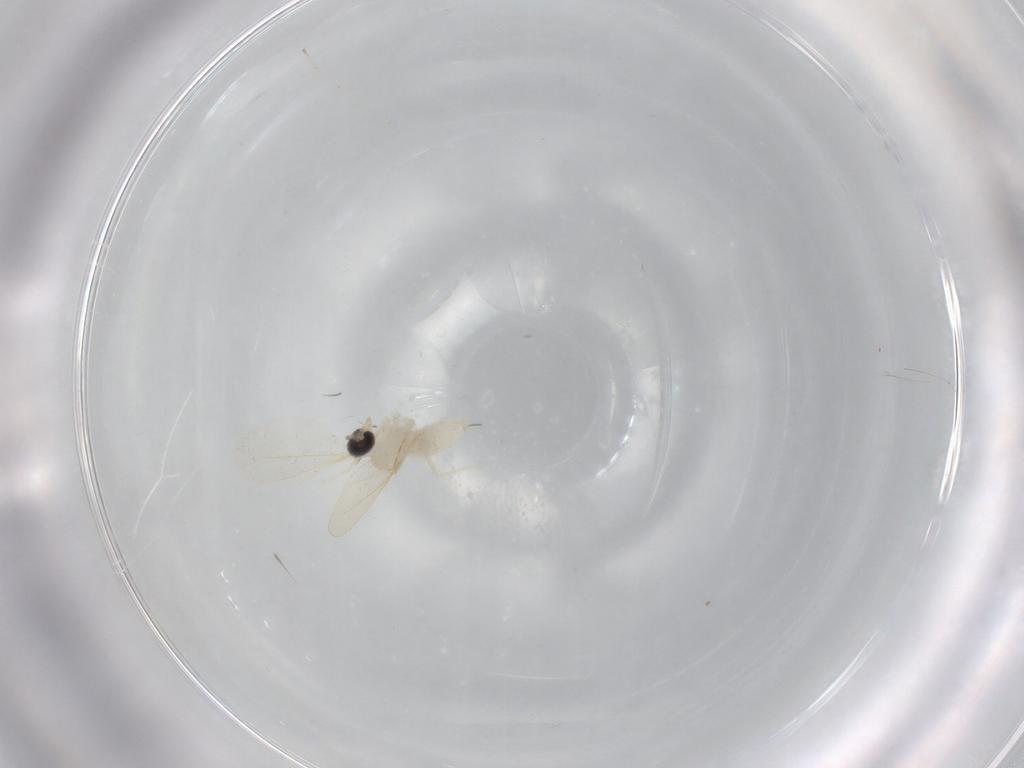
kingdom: Animalia
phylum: Arthropoda
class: Insecta
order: Diptera
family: Cecidomyiidae
